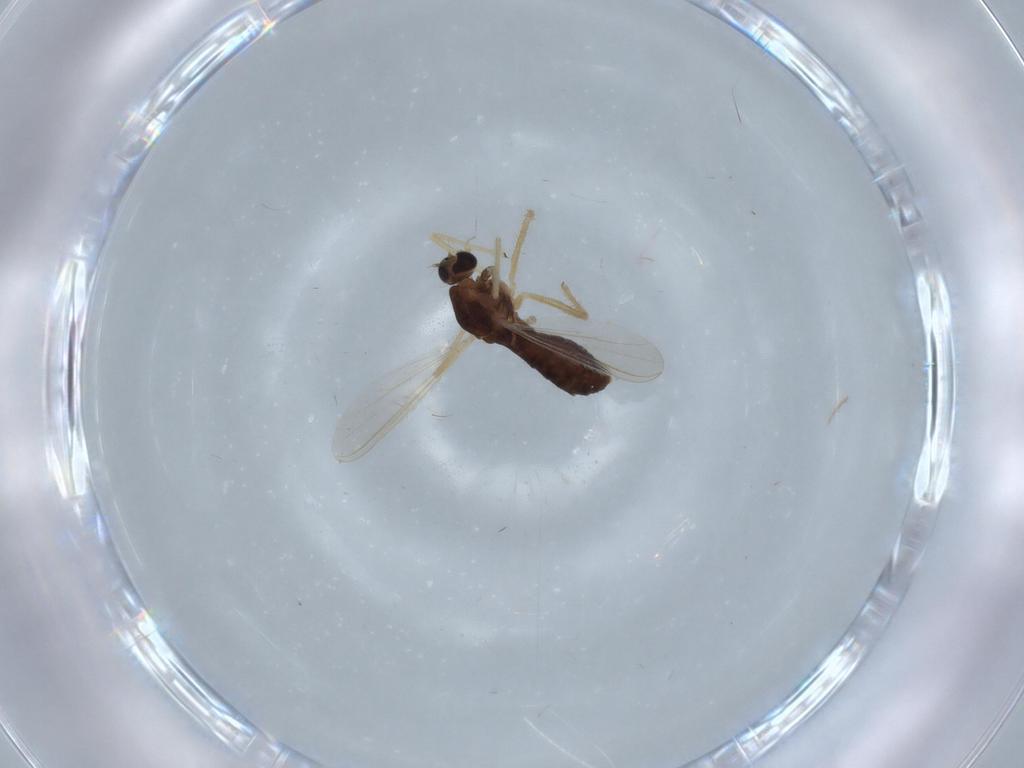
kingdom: Animalia
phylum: Arthropoda
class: Insecta
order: Diptera
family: Chironomidae
